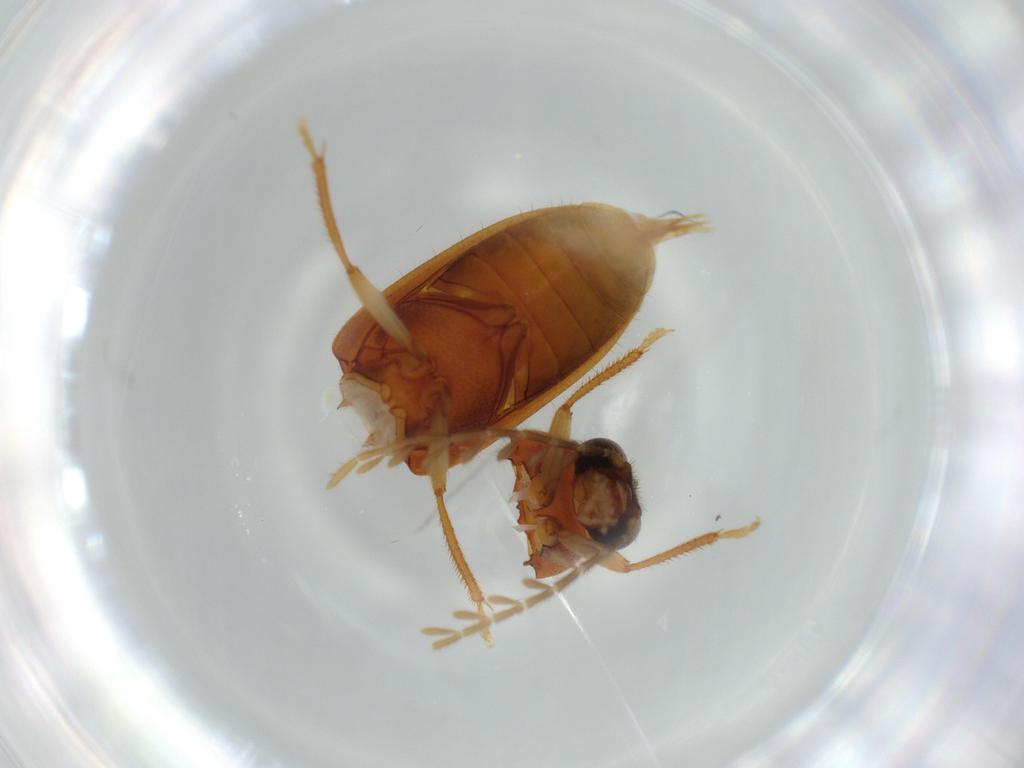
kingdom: Animalia
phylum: Arthropoda
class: Insecta
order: Coleoptera
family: Ptilodactylidae
